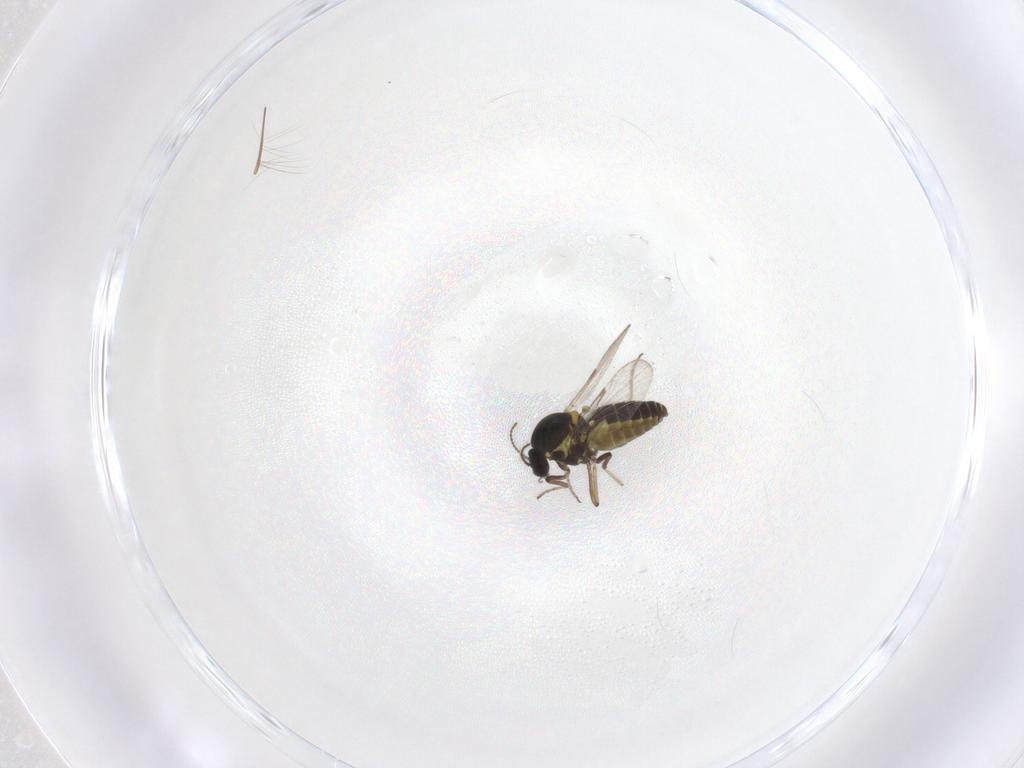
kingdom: Animalia
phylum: Arthropoda
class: Insecta
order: Diptera
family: Ceratopogonidae
